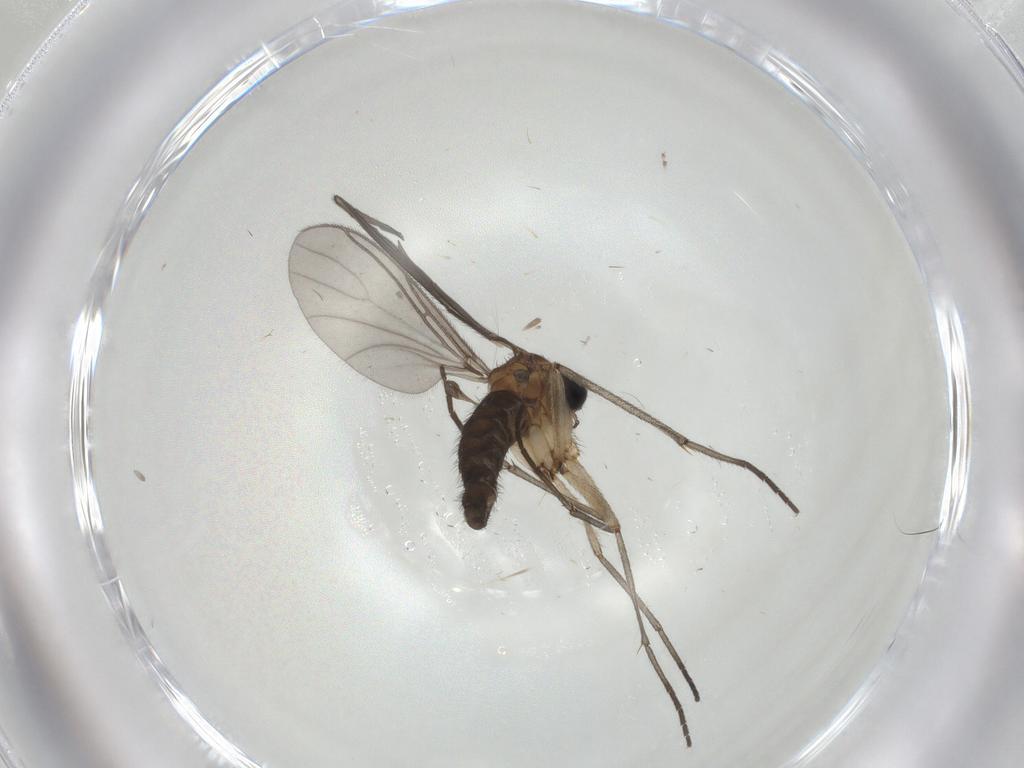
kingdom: Animalia
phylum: Arthropoda
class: Insecta
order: Diptera
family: Sciaridae
